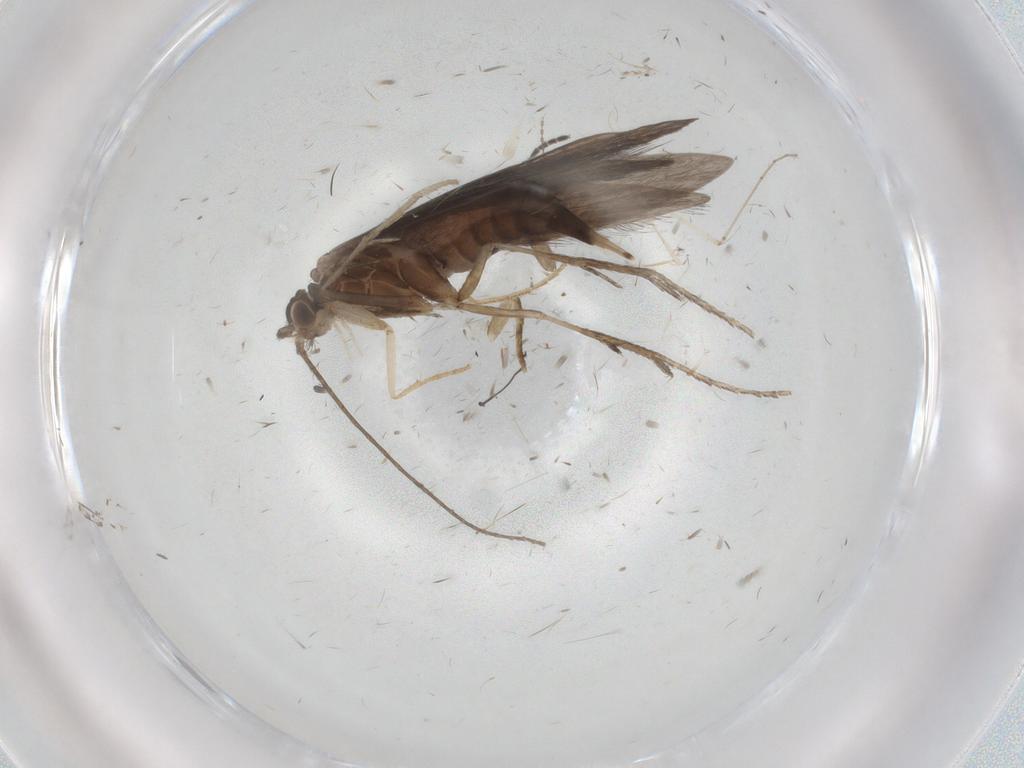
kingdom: Animalia
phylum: Arthropoda
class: Insecta
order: Trichoptera
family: Xiphocentronidae
